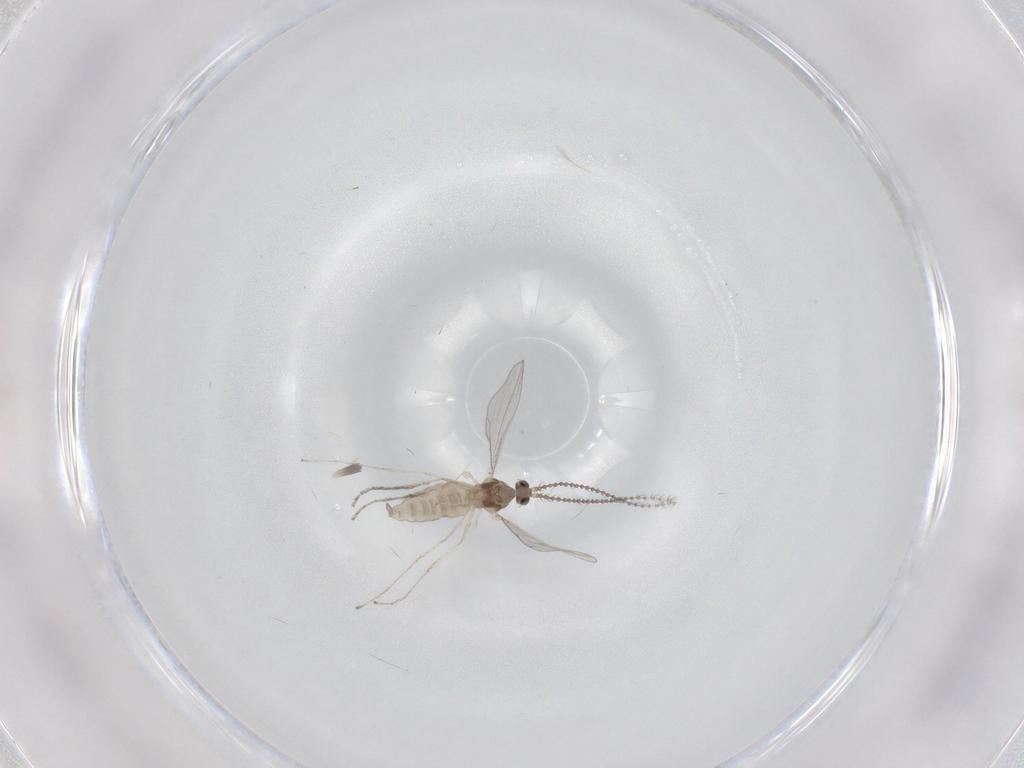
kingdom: Animalia
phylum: Arthropoda
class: Insecta
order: Diptera
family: Cecidomyiidae
